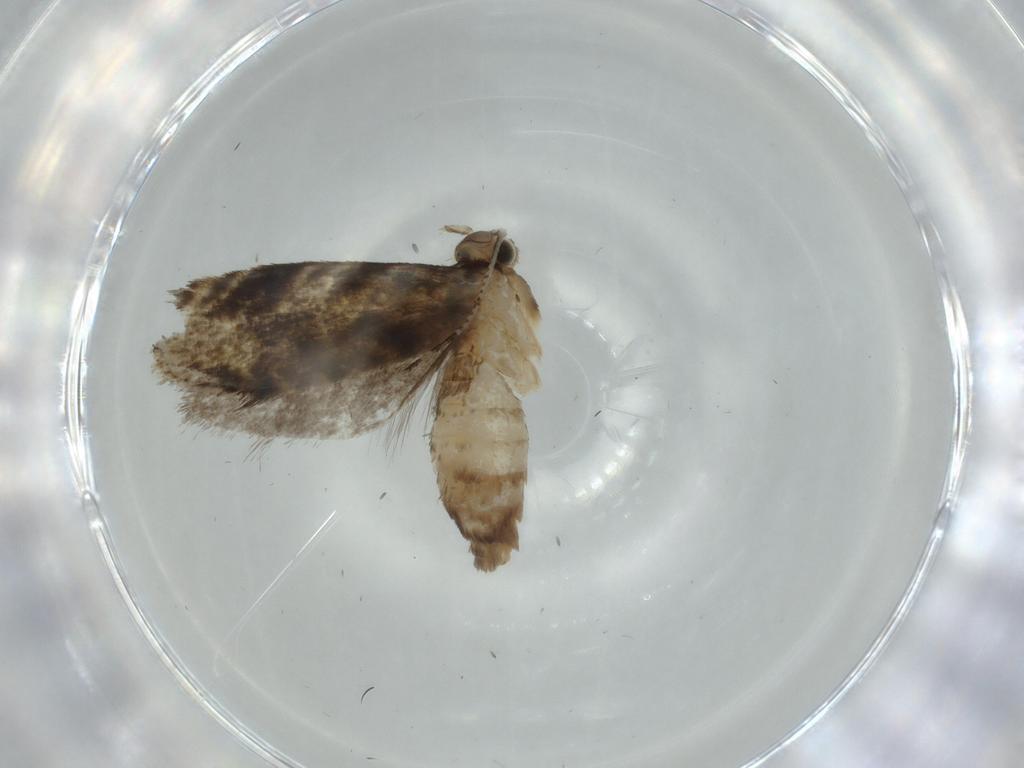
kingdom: Animalia
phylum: Arthropoda
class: Insecta
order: Lepidoptera
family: Tineidae
